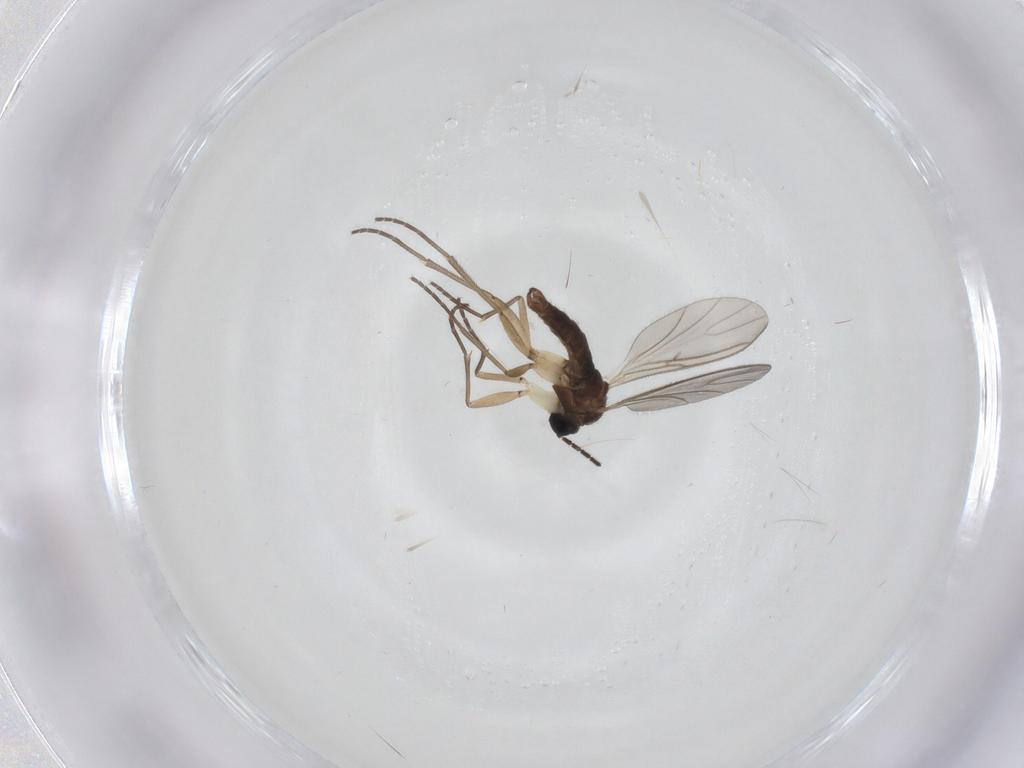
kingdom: Animalia
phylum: Arthropoda
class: Insecta
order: Diptera
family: Sciaridae
